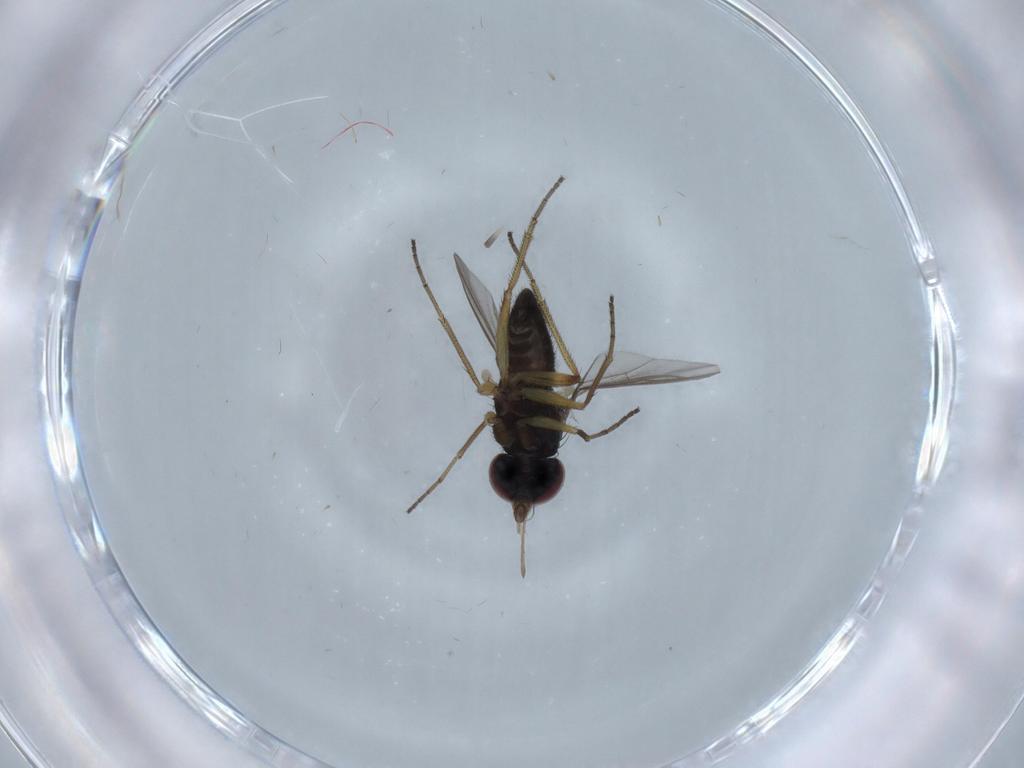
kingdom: Animalia
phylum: Arthropoda
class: Insecta
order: Diptera
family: Dolichopodidae
